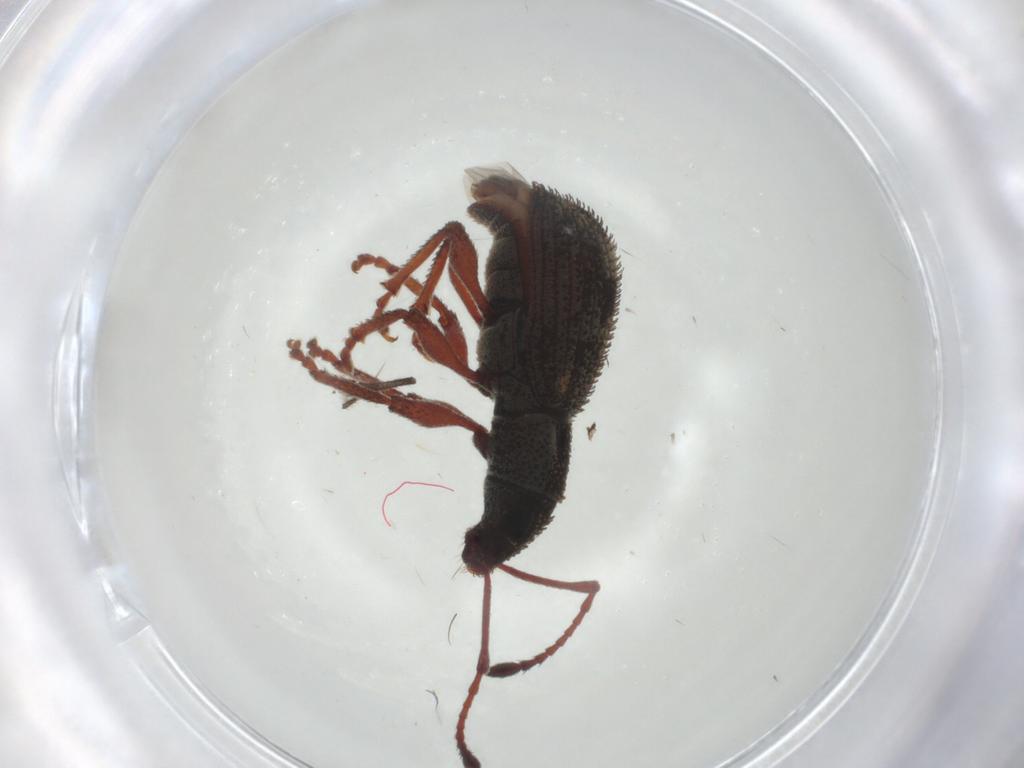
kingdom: Animalia
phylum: Arthropoda
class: Insecta
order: Coleoptera
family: Curculionidae
